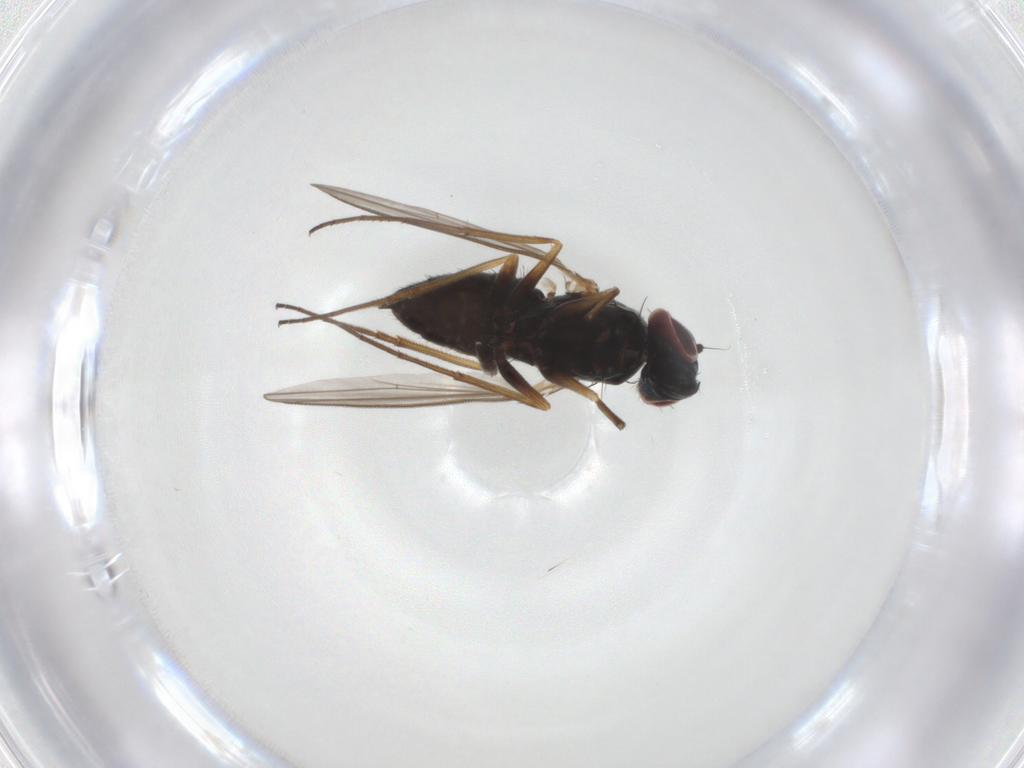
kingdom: Animalia
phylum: Arthropoda
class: Insecta
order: Diptera
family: Dolichopodidae
